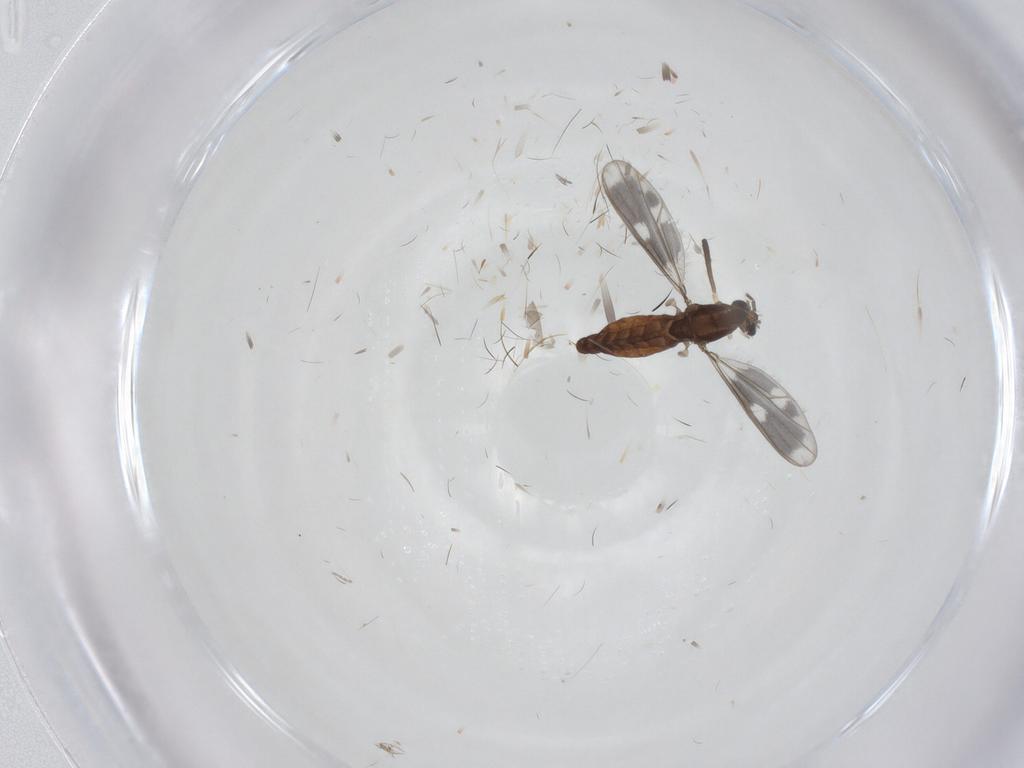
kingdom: Animalia
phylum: Arthropoda
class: Insecta
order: Diptera
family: Chironomidae
